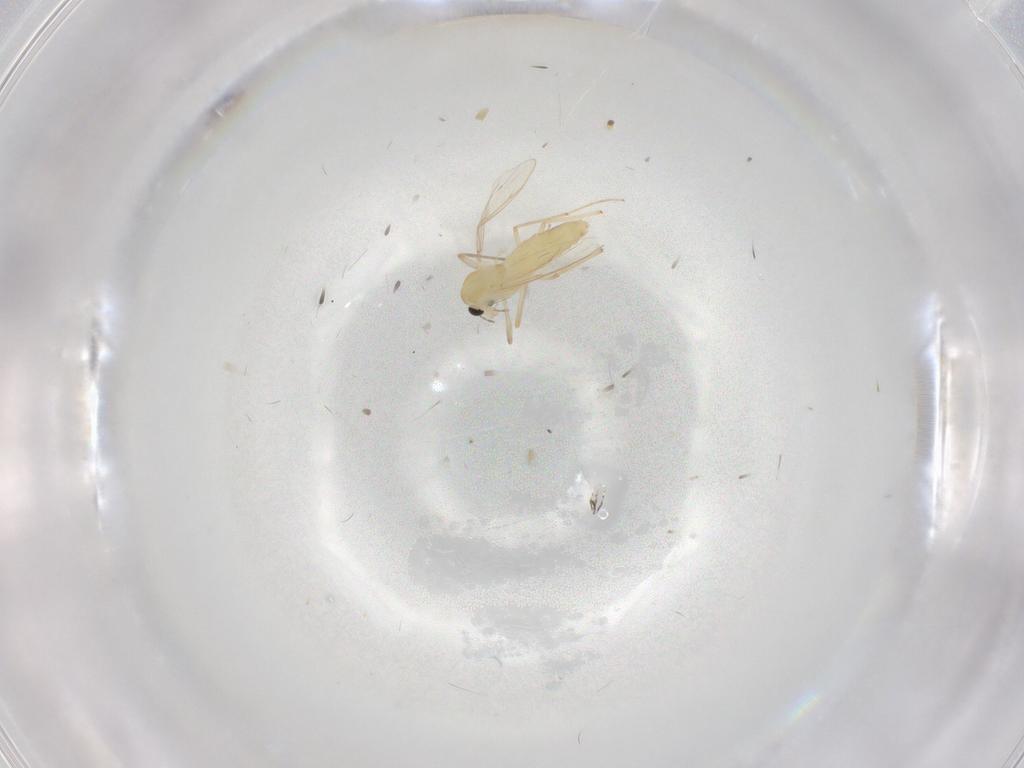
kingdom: Animalia
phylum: Arthropoda
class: Insecta
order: Diptera
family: Chironomidae
